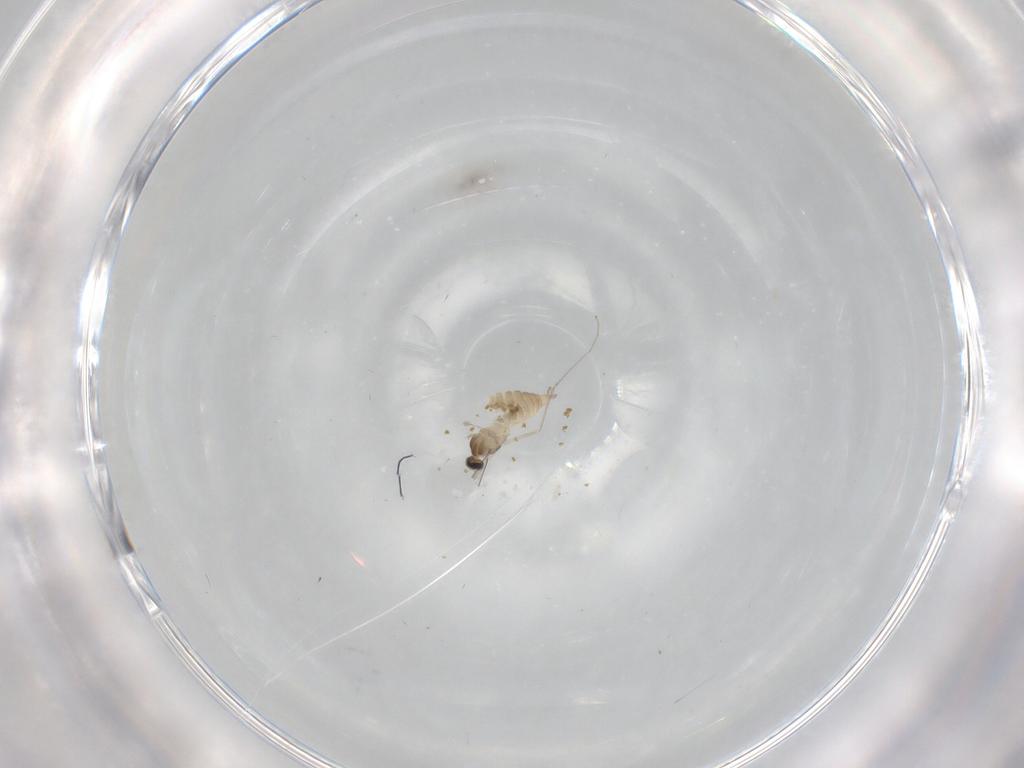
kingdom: Animalia
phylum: Arthropoda
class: Insecta
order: Diptera
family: Cecidomyiidae
